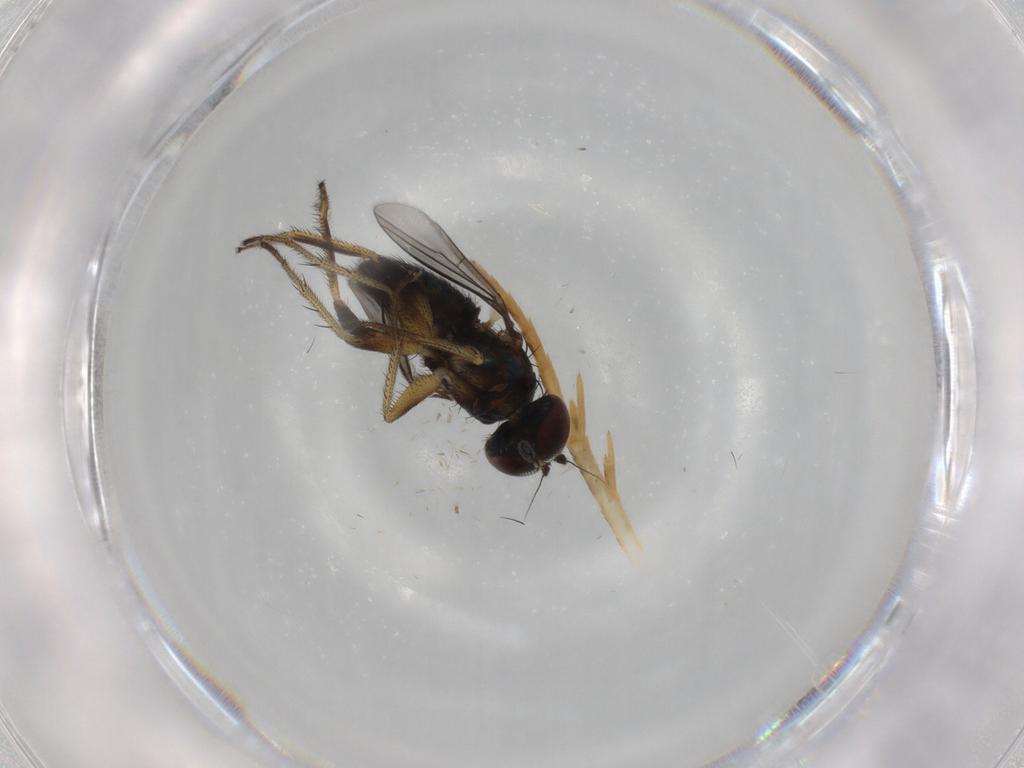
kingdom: Animalia
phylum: Arthropoda
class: Insecta
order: Diptera
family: Dolichopodidae
